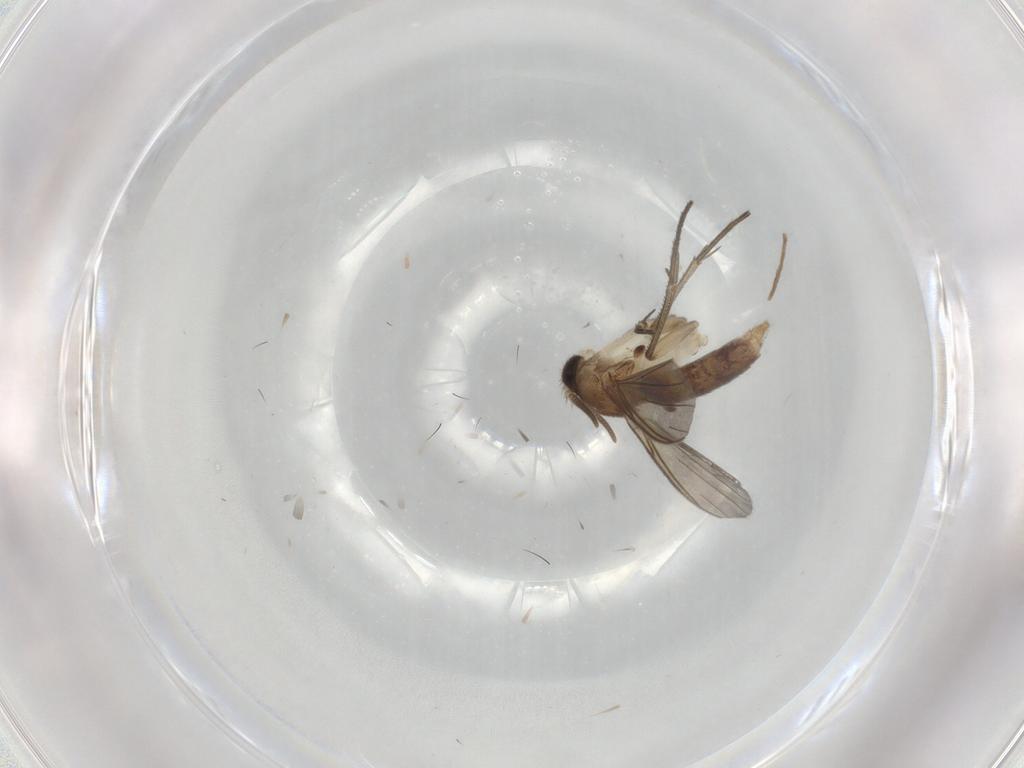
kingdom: Animalia
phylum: Arthropoda
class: Insecta
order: Diptera
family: Mycetophilidae
